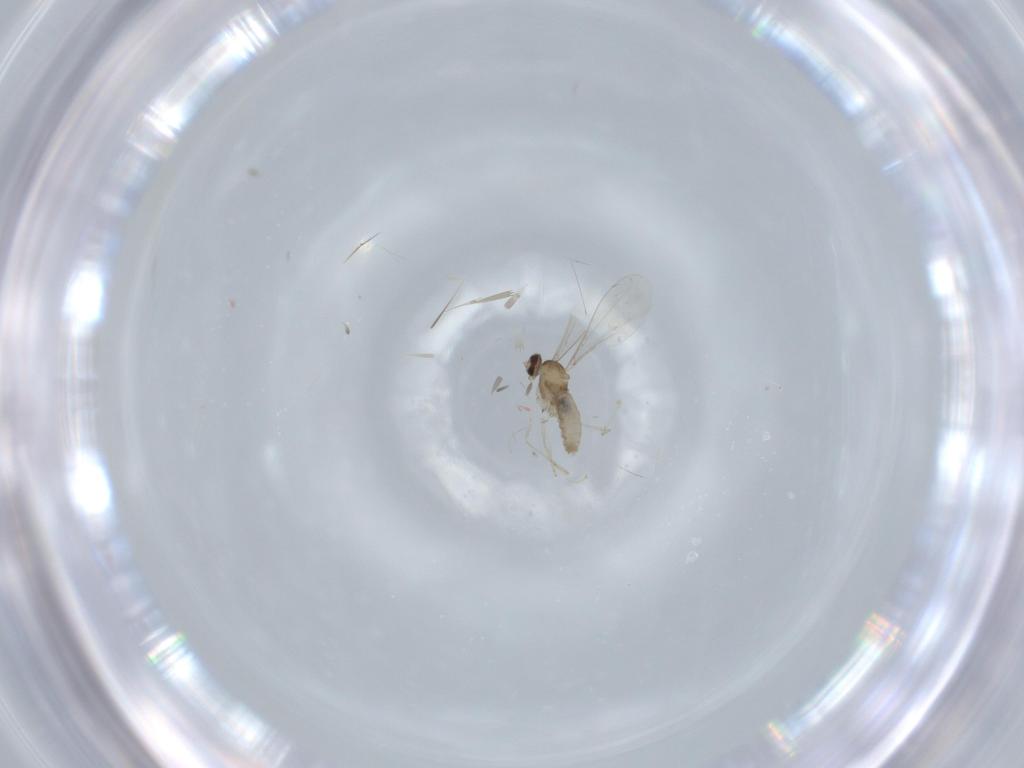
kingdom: Animalia
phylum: Arthropoda
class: Insecta
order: Diptera
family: Cecidomyiidae
